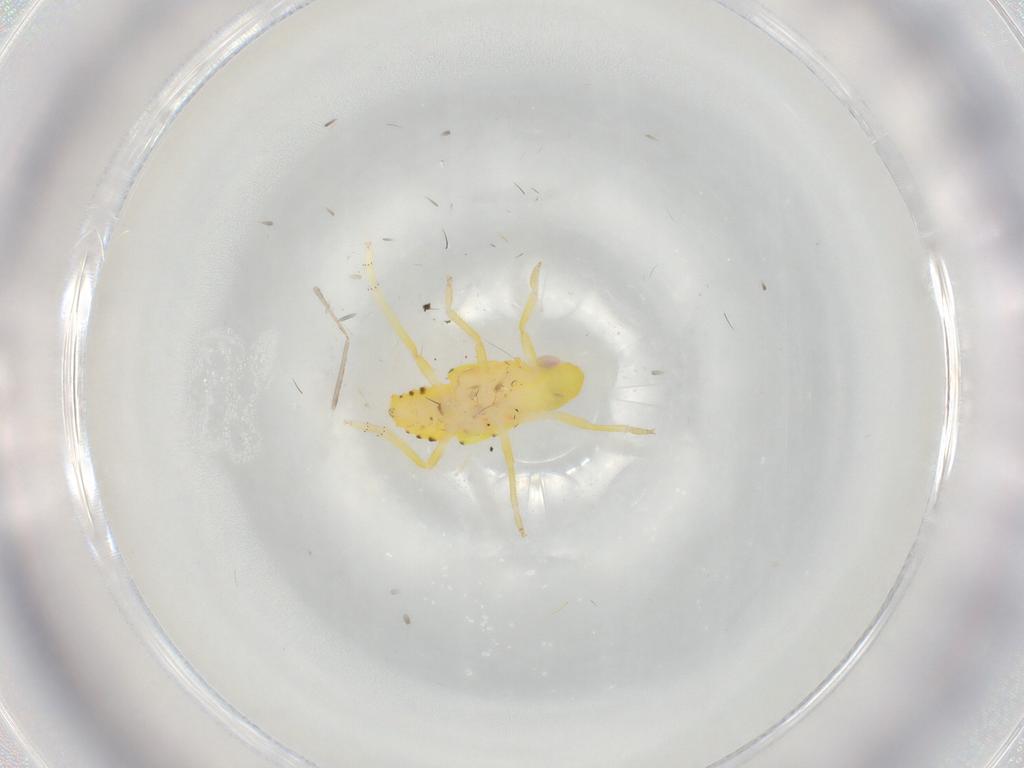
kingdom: Animalia
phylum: Arthropoda
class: Insecta
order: Hemiptera
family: Tropiduchidae
